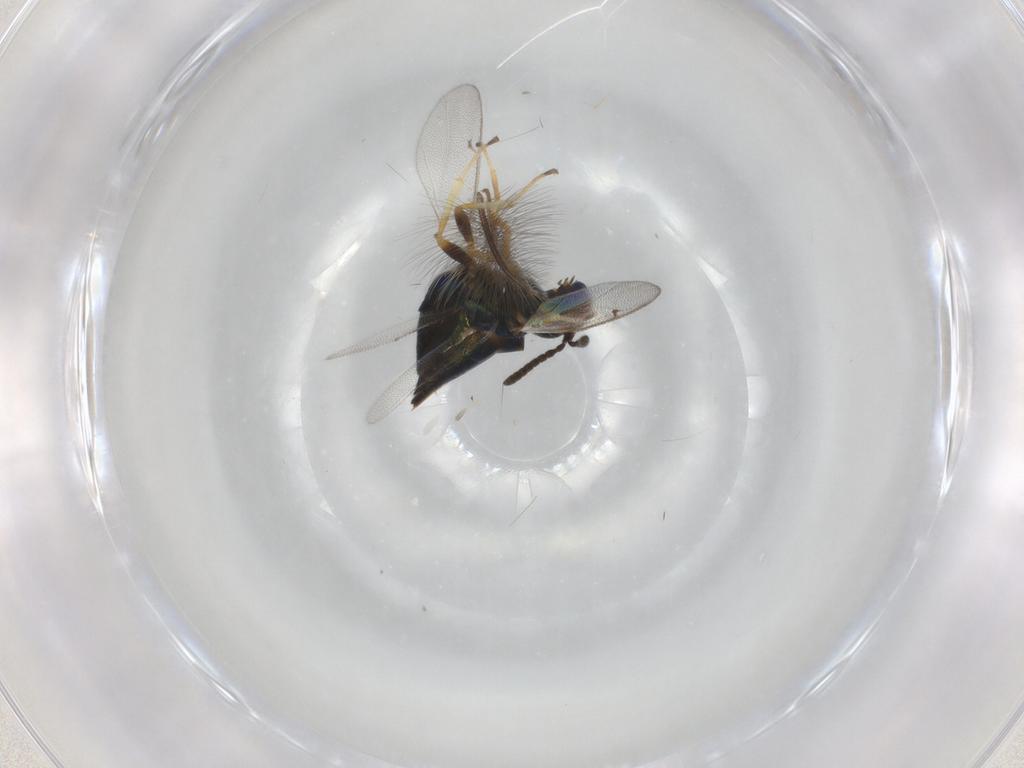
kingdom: Animalia
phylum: Arthropoda
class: Insecta
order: Hymenoptera
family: Pteromalidae
